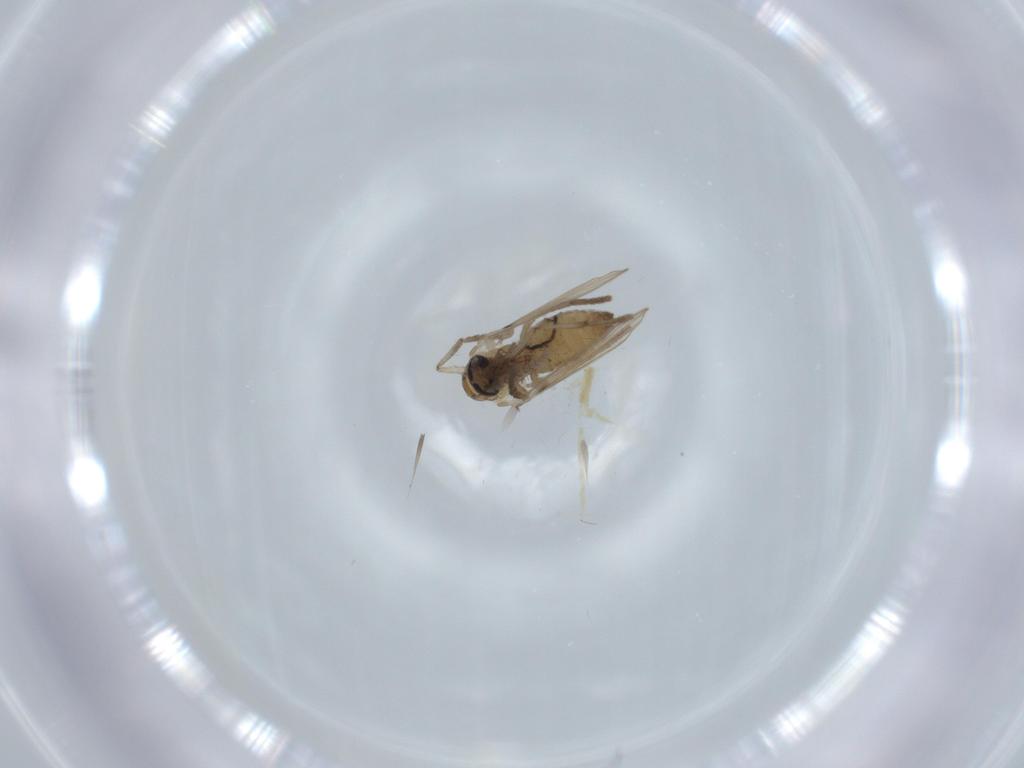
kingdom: Animalia
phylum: Arthropoda
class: Insecta
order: Diptera
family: Psychodidae
